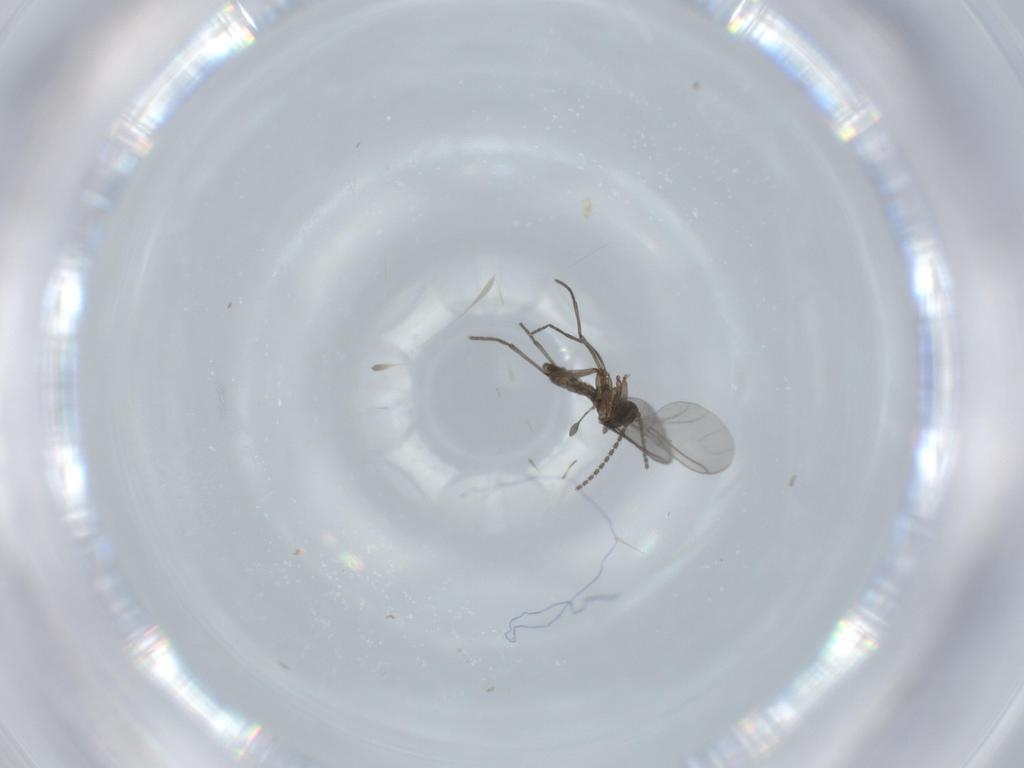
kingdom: Animalia
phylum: Arthropoda
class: Insecta
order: Diptera
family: Sciaridae
